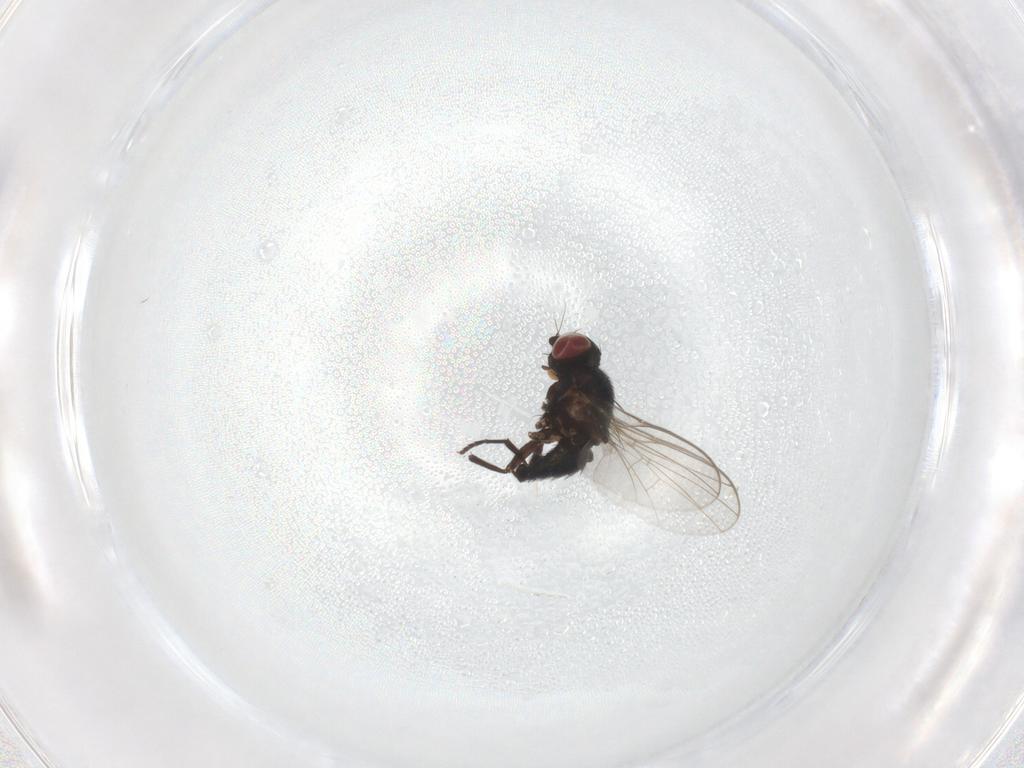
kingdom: Animalia
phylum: Arthropoda
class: Insecta
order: Diptera
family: Agromyzidae
